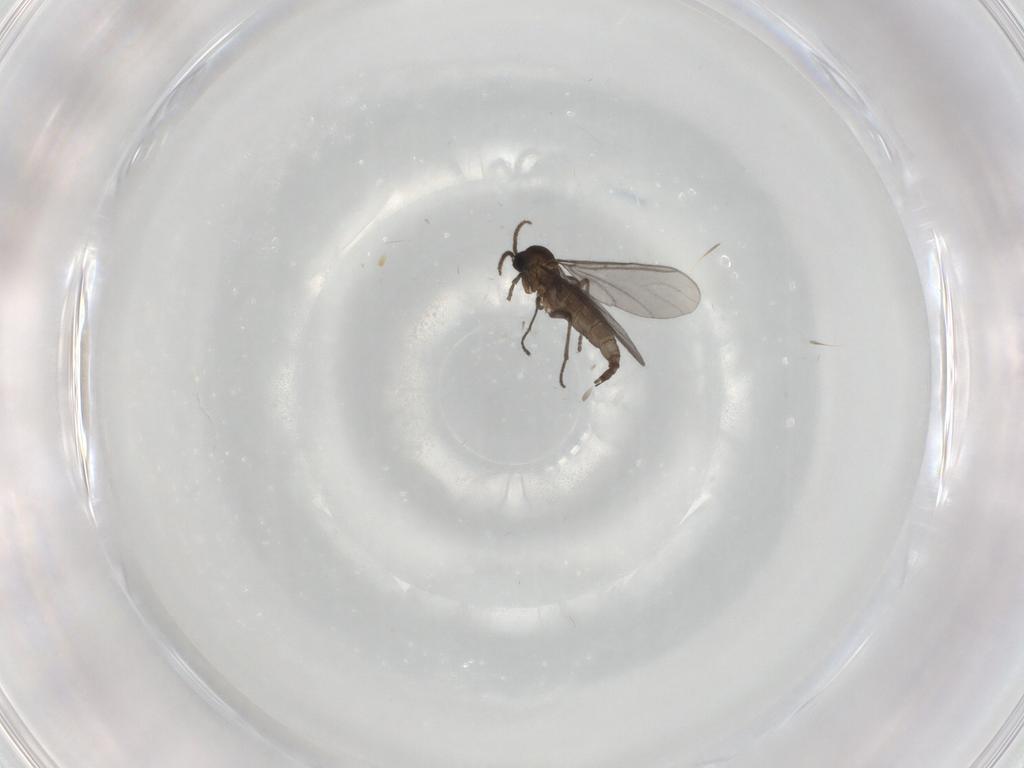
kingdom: Animalia
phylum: Arthropoda
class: Insecta
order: Diptera
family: Sciaridae
